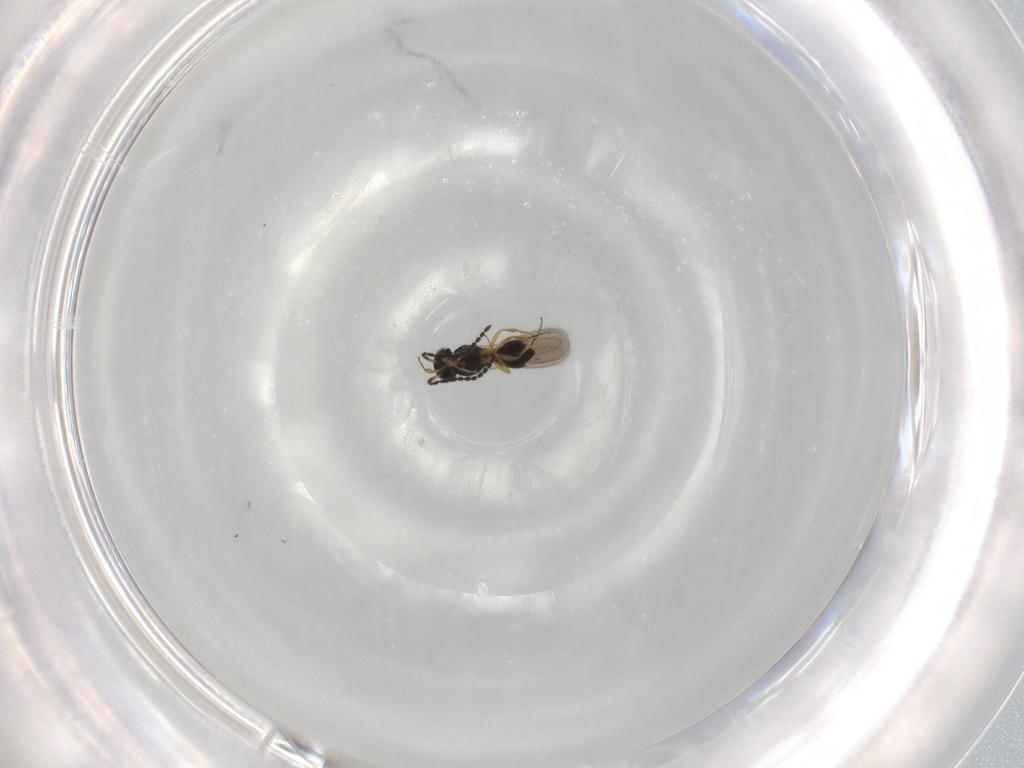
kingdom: Animalia
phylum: Arthropoda
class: Insecta
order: Hymenoptera
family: Scelionidae
